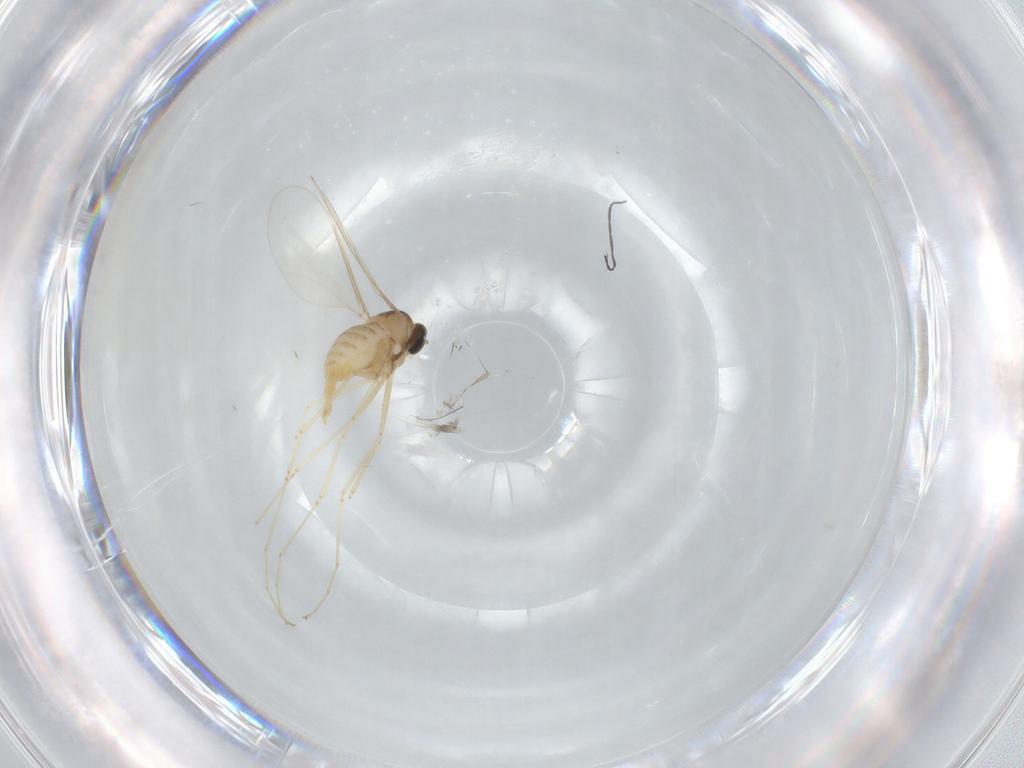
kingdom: Animalia
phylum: Arthropoda
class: Insecta
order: Diptera
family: Cecidomyiidae
